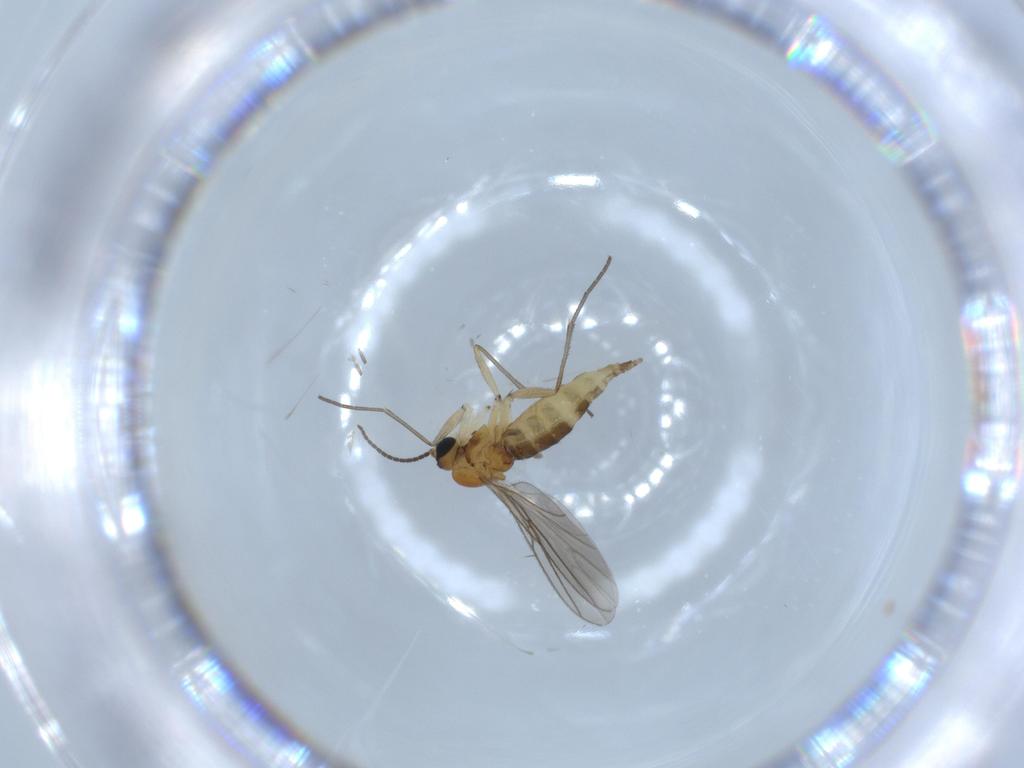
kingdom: Animalia
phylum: Arthropoda
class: Insecta
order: Diptera
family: Sciaridae
